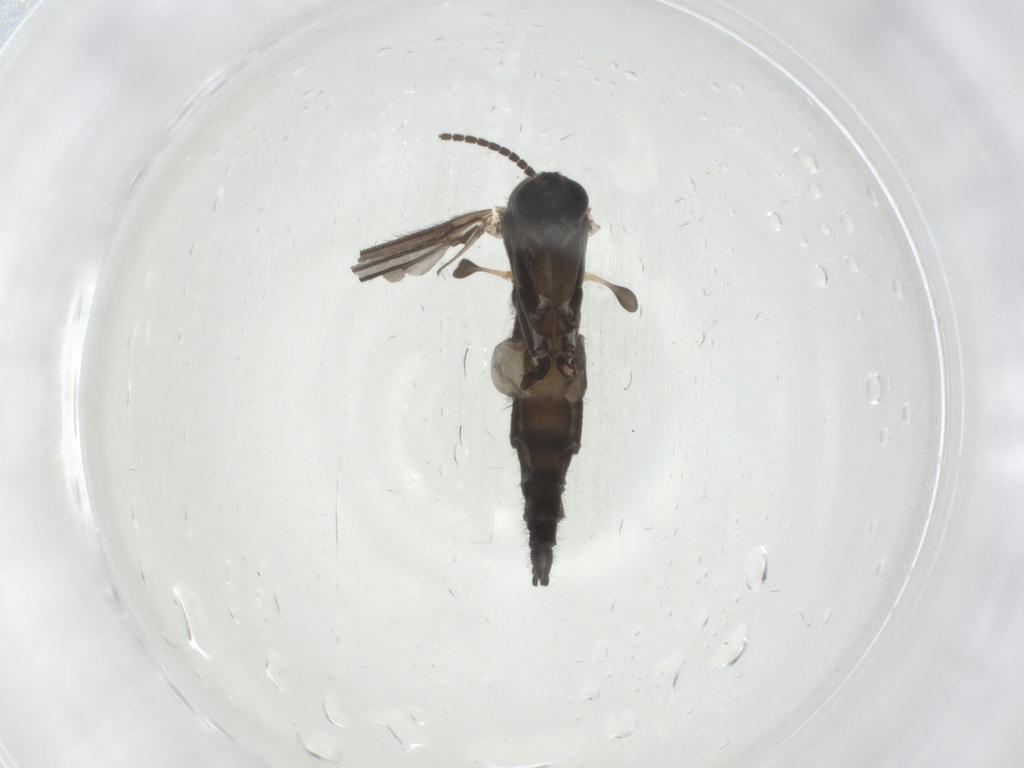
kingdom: Animalia
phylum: Arthropoda
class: Insecta
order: Diptera
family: Sciaridae
